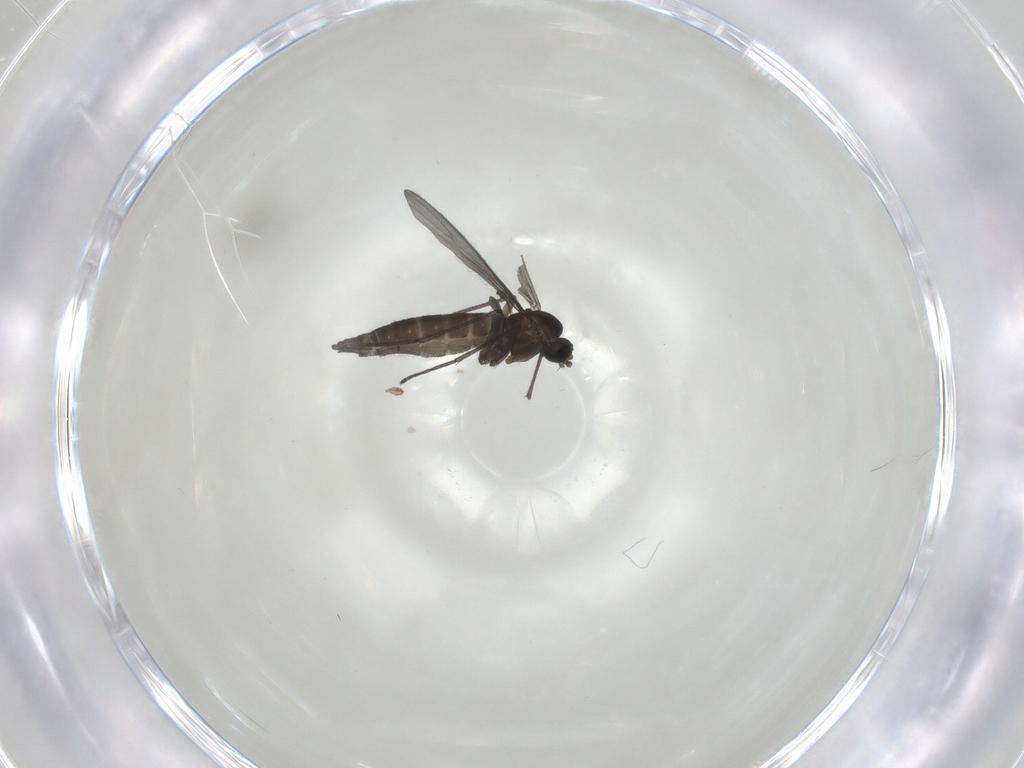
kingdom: Animalia
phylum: Arthropoda
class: Insecta
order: Diptera
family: Sciaridae
